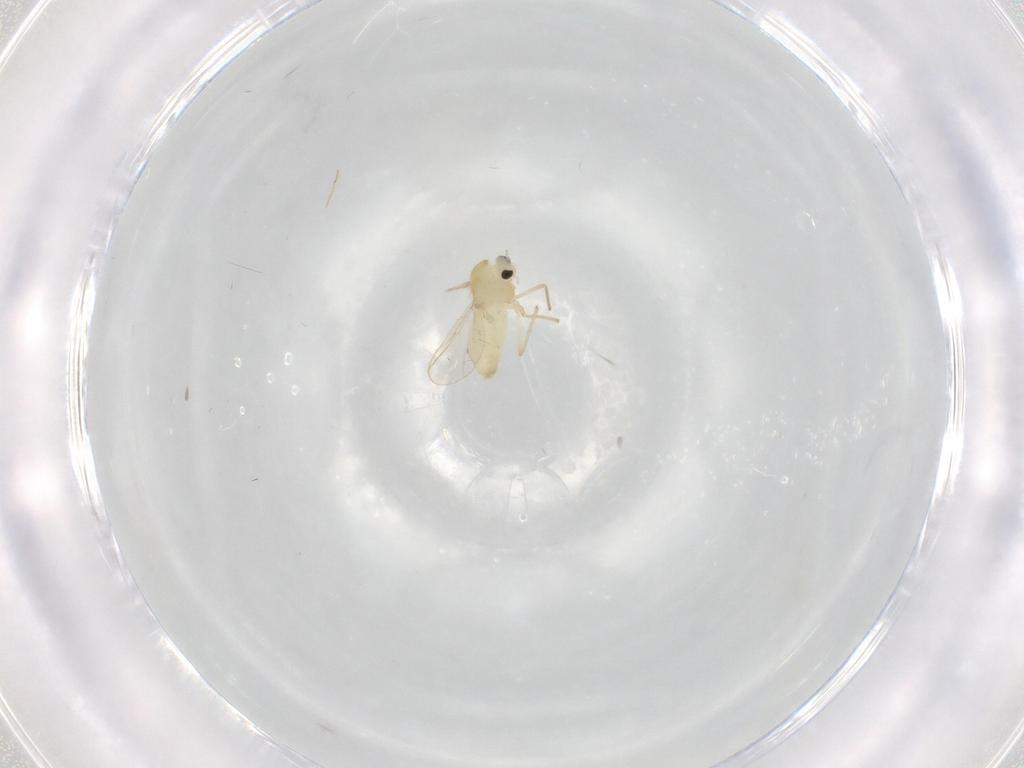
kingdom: Animalia
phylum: Arthropoda
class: Insecta
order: Diptera
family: Chironomidae
